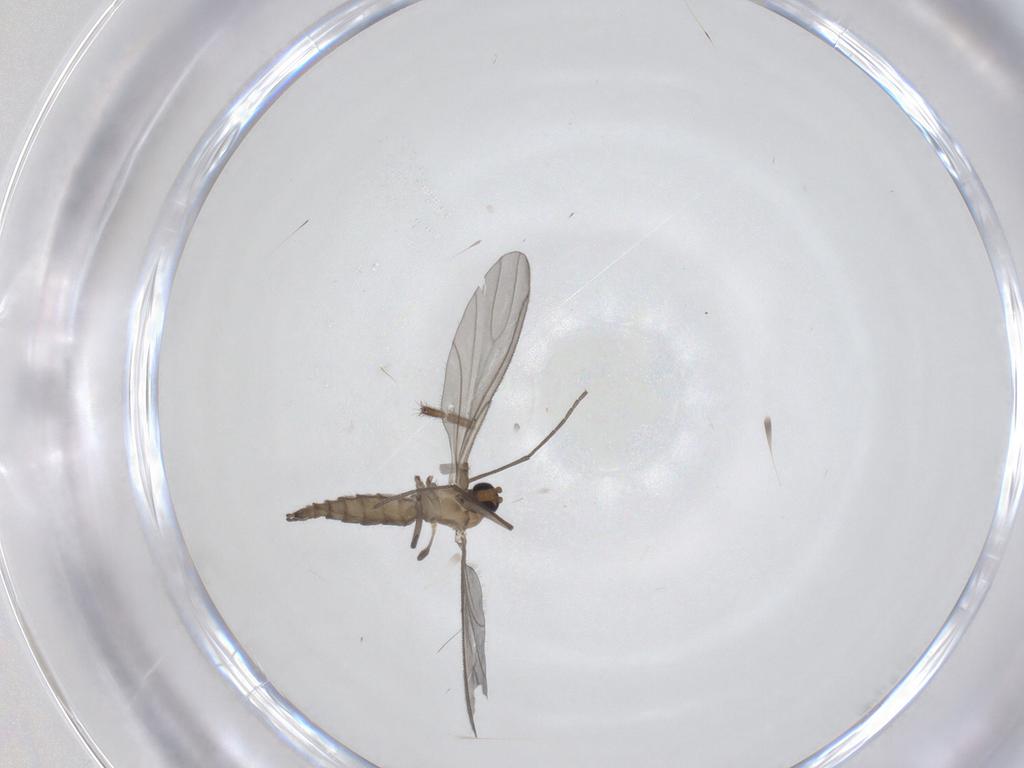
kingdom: Animalia
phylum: Arthropoda
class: Insecta
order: Diptera
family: Sciaridae
